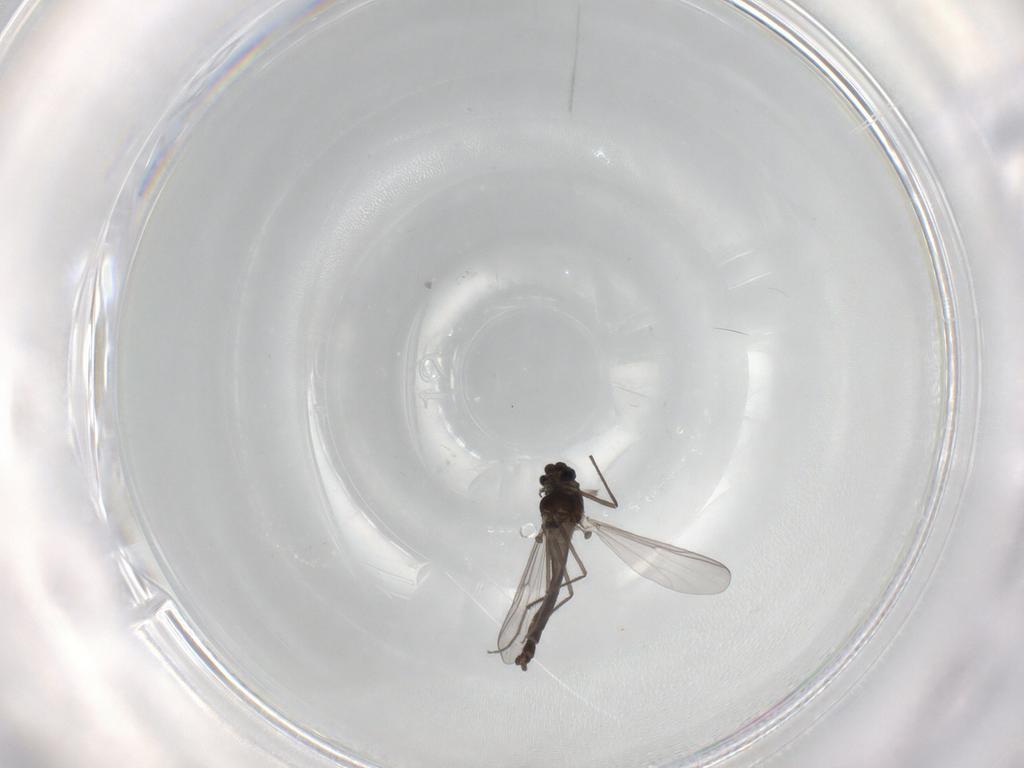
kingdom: Animalia
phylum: Arthropoda
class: Insecta
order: Diptera
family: Chironomidae
